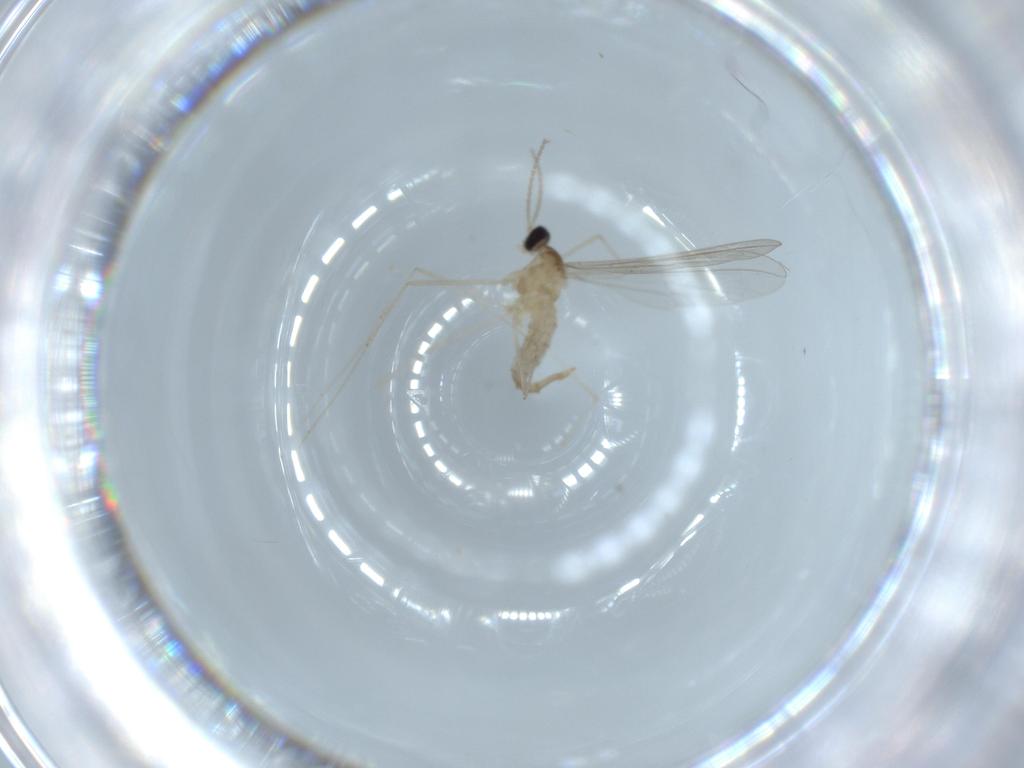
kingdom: Animalia
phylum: Arthropoda
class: Insecta
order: Diptera
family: Cecidomyiidae
